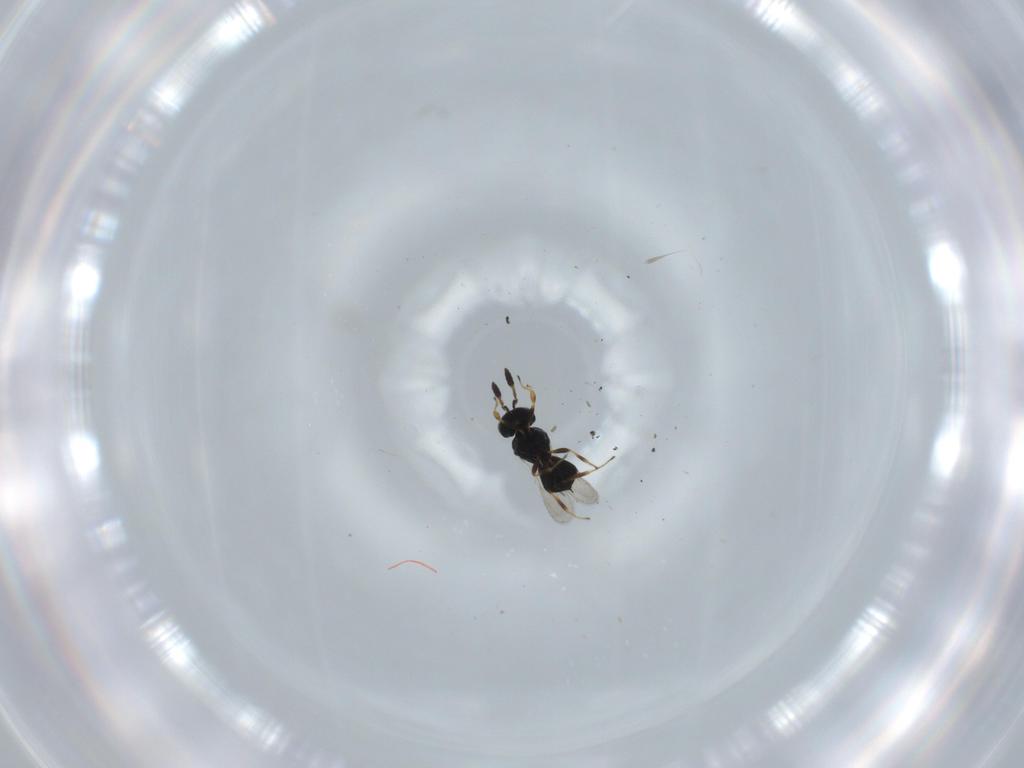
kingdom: Animalia
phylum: Arthropoda
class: Insecta
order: Hymenoptera
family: Scelionidae
